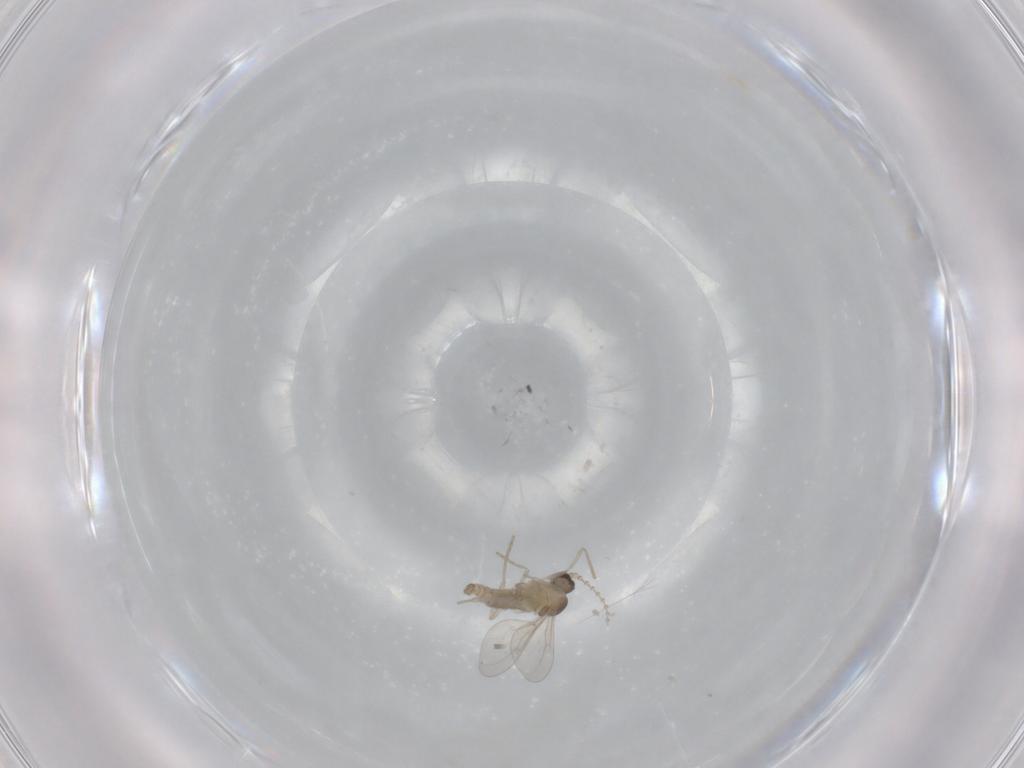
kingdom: Animalia
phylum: Arthropoda
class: Insecta
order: Diptera
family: Cecidomyiidae
